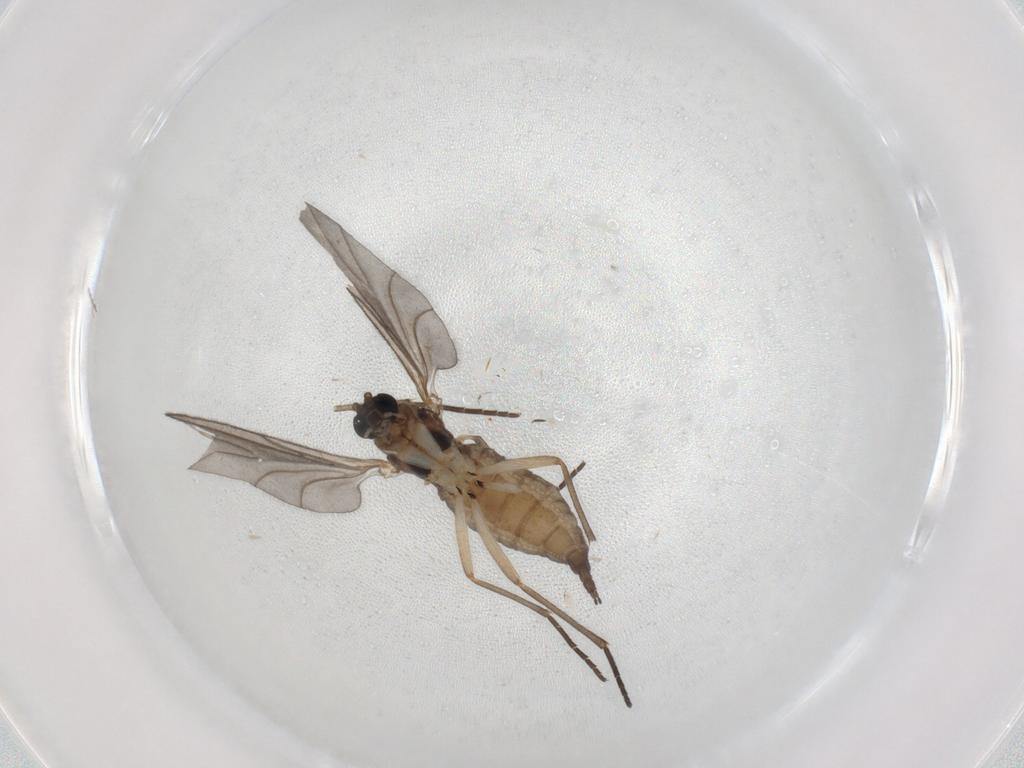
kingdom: Animalia
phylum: Arthropoda
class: Insecta
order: Diptera
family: Sciaridae
